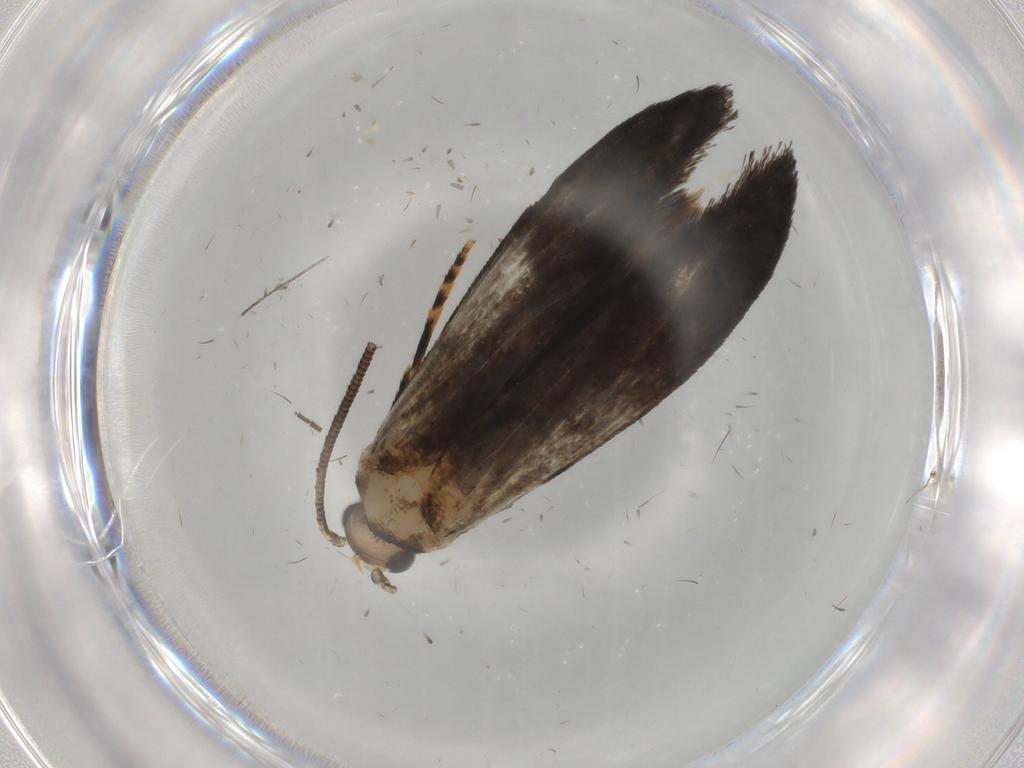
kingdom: Animalia
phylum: Arthropoda
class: Insecta
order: Lepidoptera
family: Tineidae
